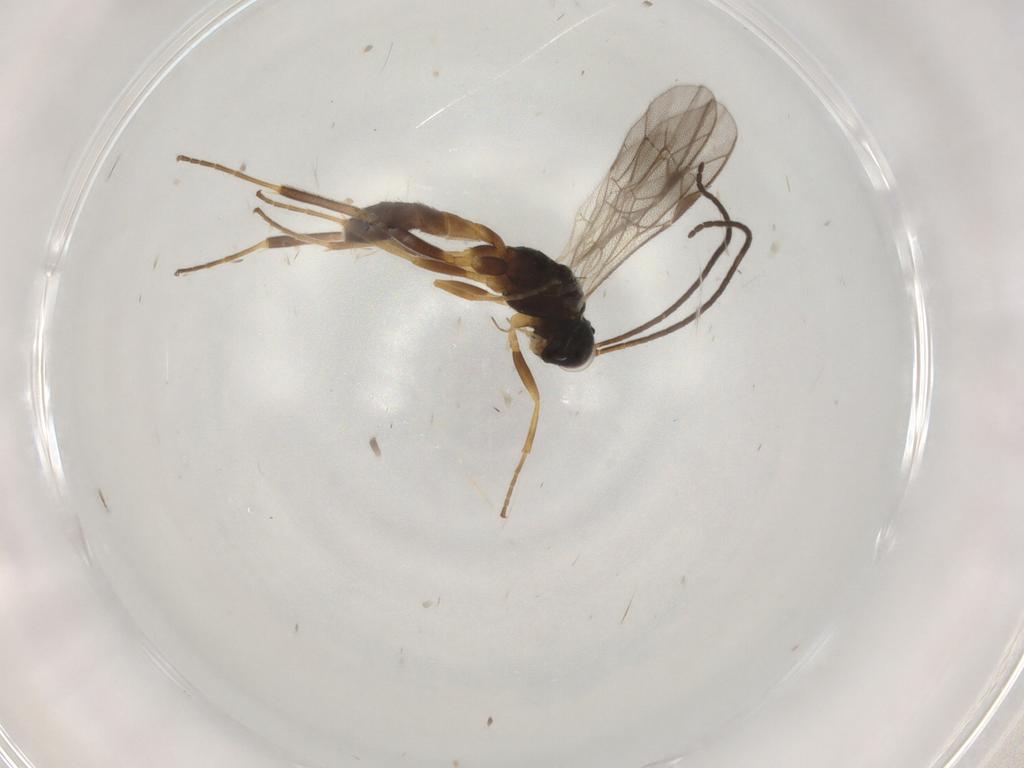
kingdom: Animalia
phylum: Arthropoda
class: Insecta
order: Hymenoptera
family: Ichneumonidae
